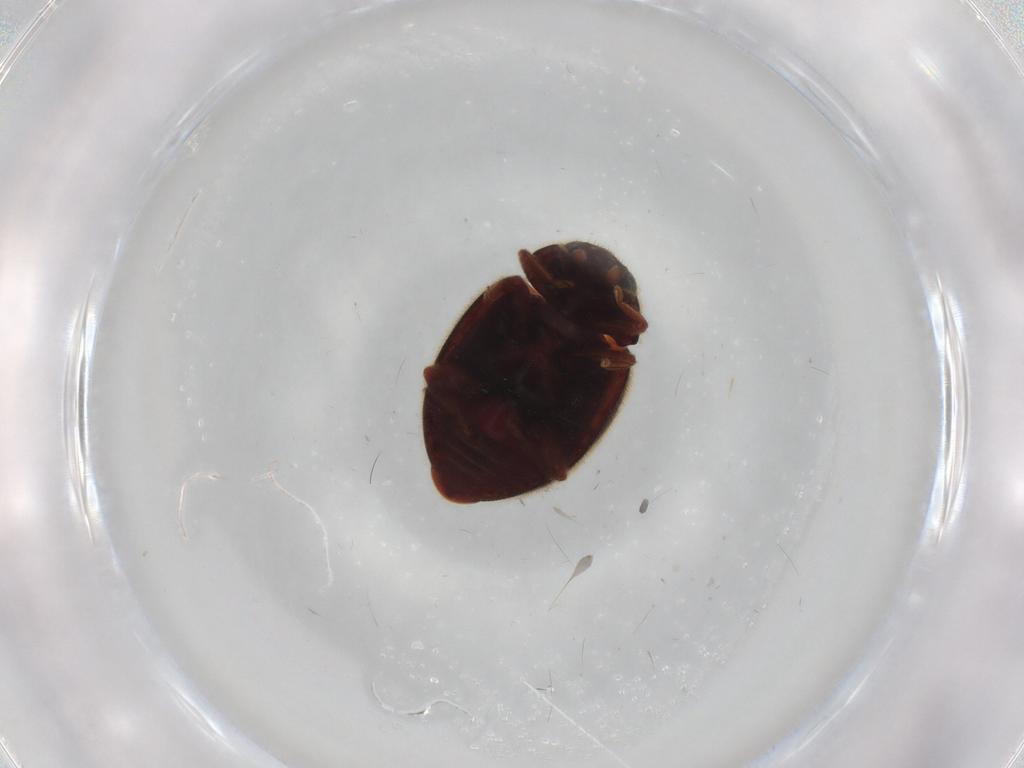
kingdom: Animalia
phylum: Arthropoda
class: Insecta
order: Coleoptera
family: Coccinellidae
